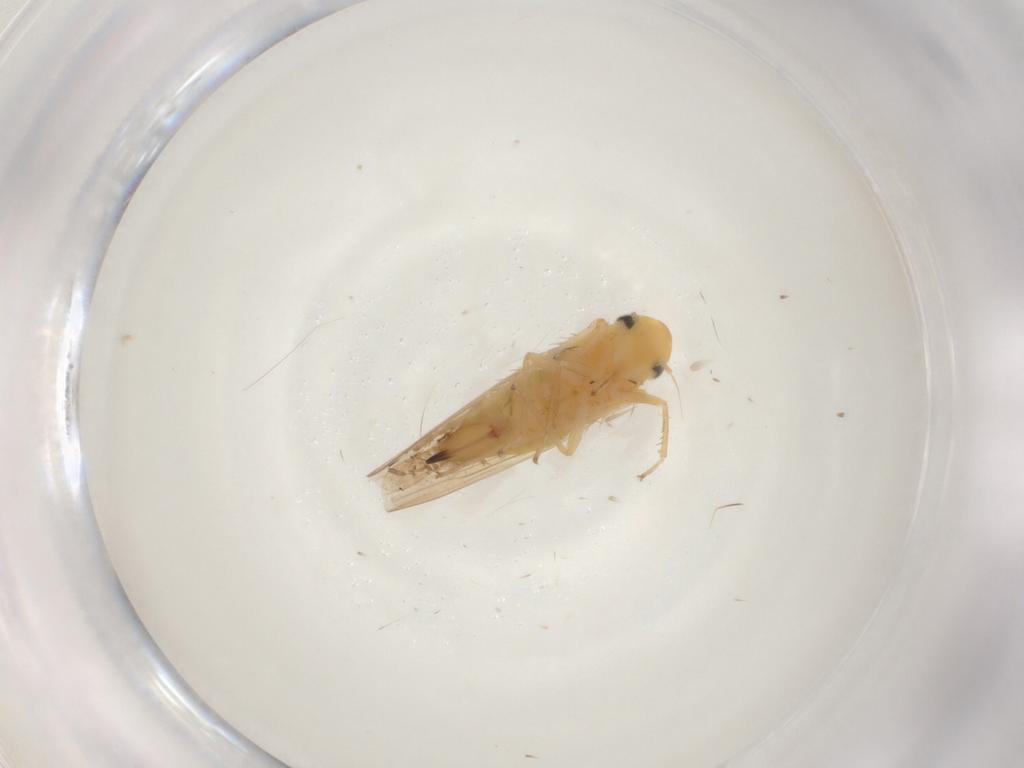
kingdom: Animalia
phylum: Arthropoda
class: Insecta
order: Hemiptera
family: Cicadellidae
